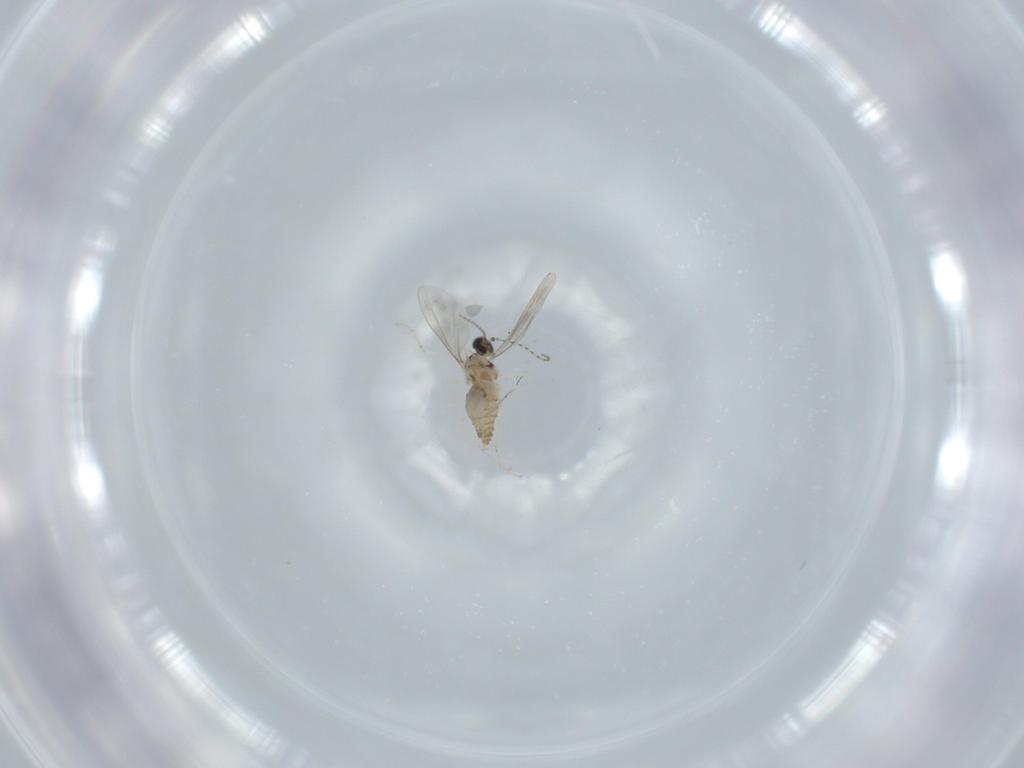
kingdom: Animalia
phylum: Arthropoda
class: Insecta
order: Diptera
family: Cecidomyiidae
